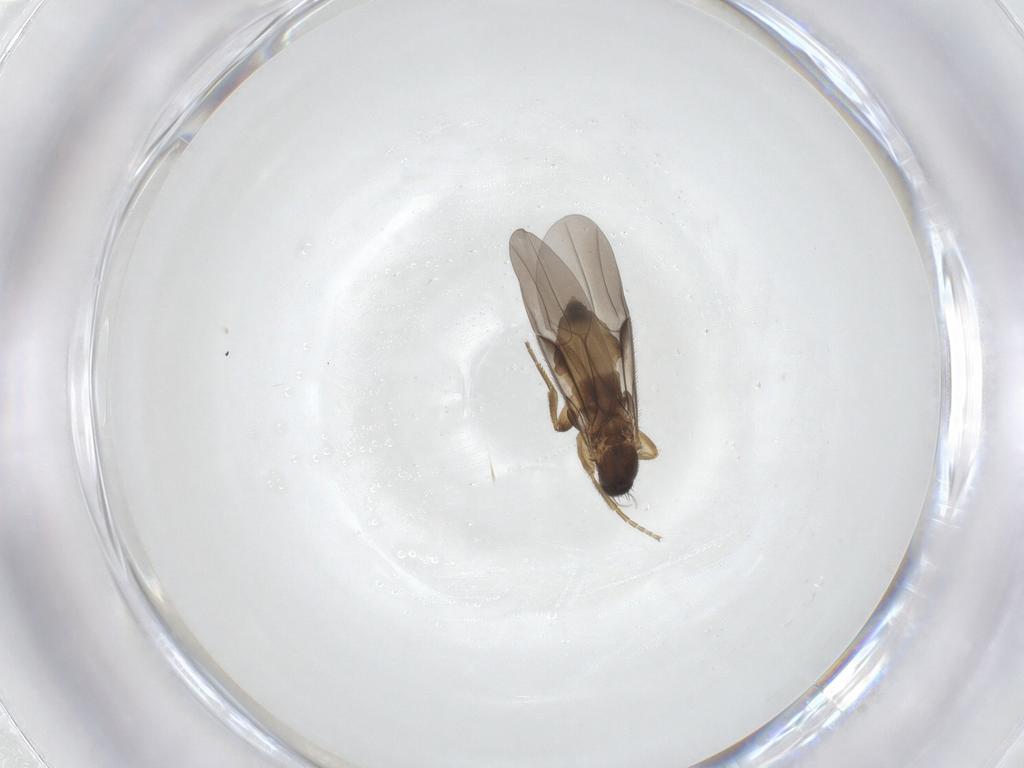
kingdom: Animalia
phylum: Arthropoda
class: Insecta
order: Diptera
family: Phoridae
